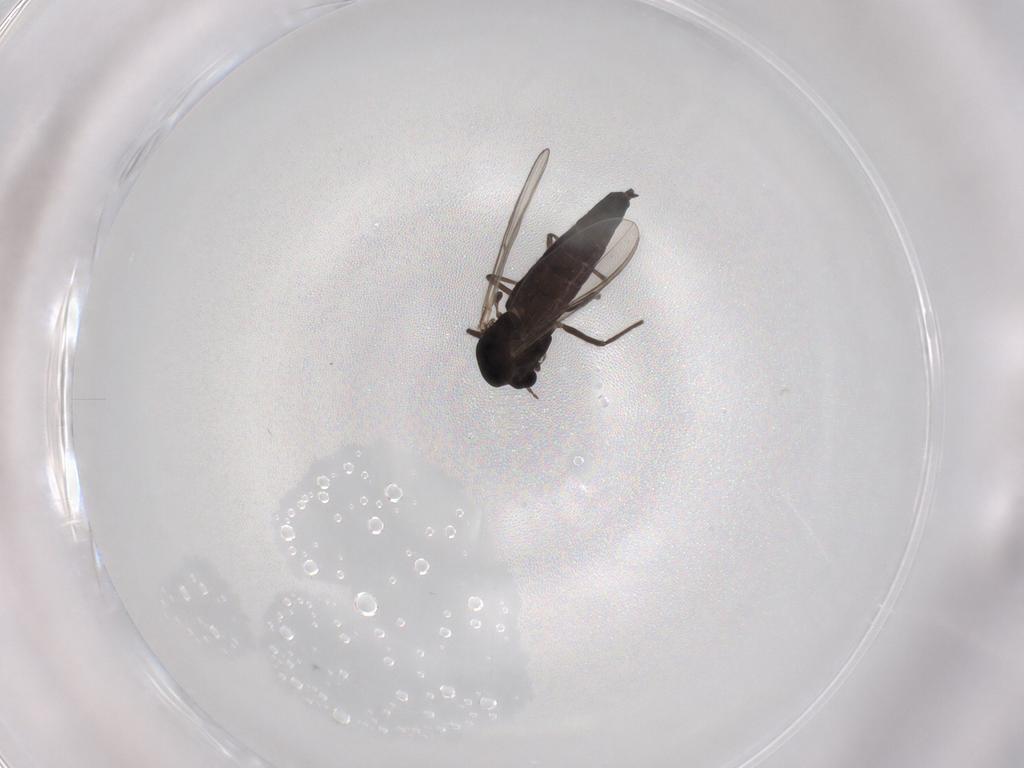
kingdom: Animalia
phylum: Arthropoda
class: Insecta
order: Diptera
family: Chironomidae
